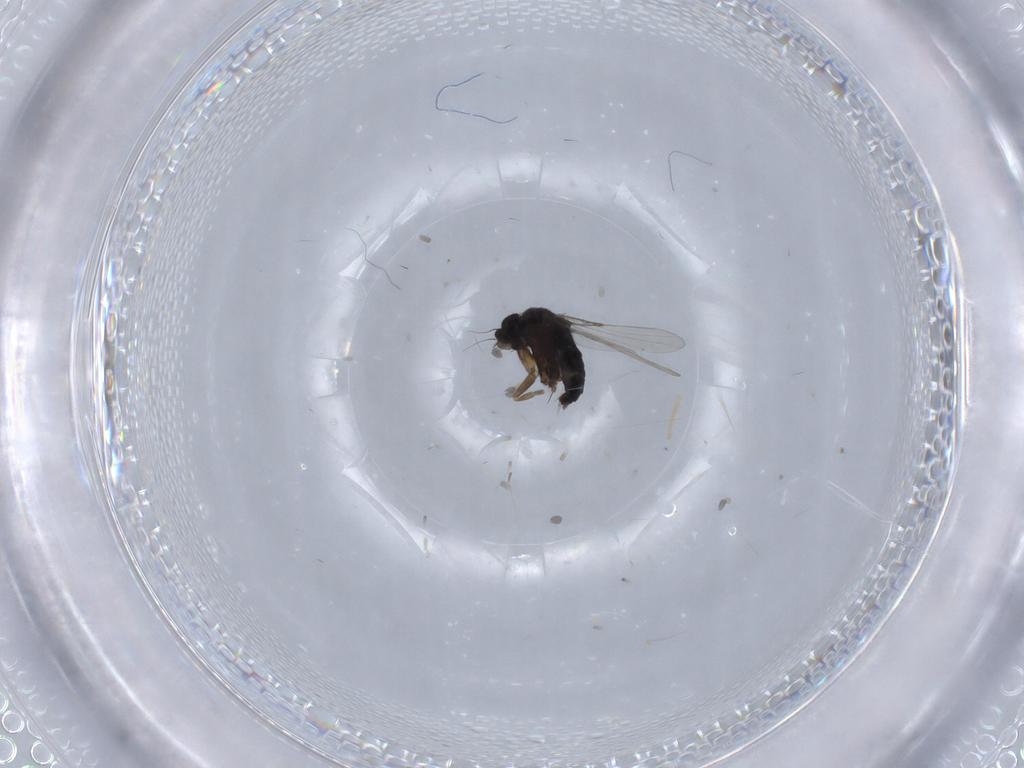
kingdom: Animalia
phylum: Arthropoda
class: Insecta
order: Diptera
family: Phoridae
